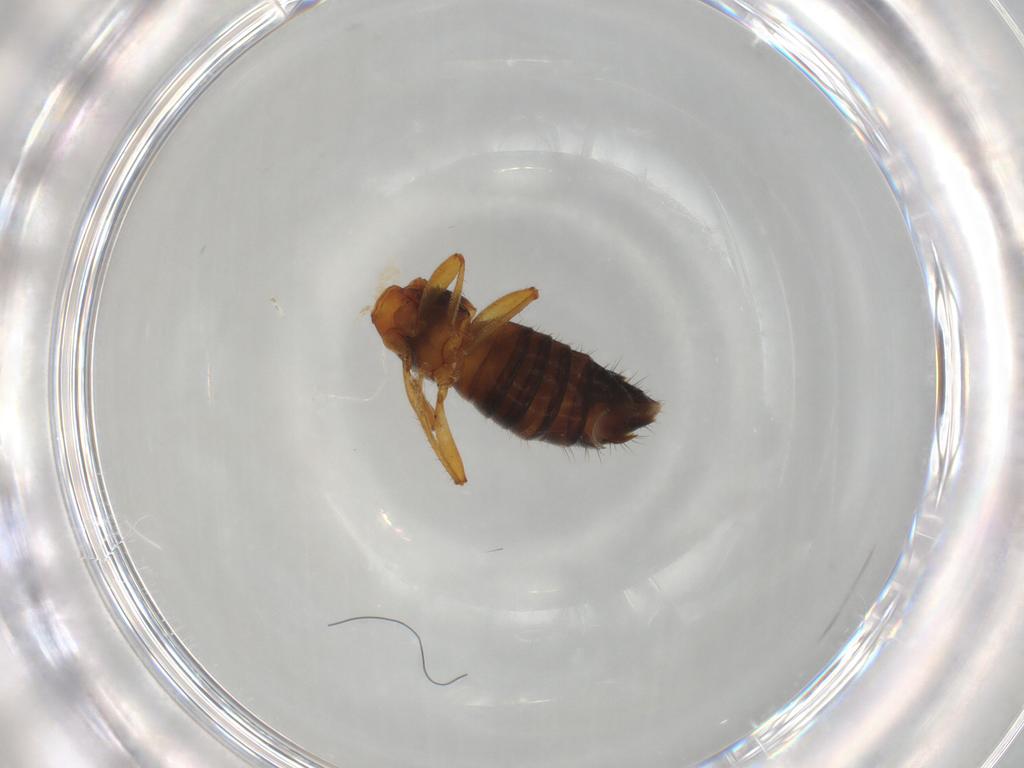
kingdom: Animalia
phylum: Arthropoda
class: Insecta
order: Coleoptera
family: Staphylinidae
